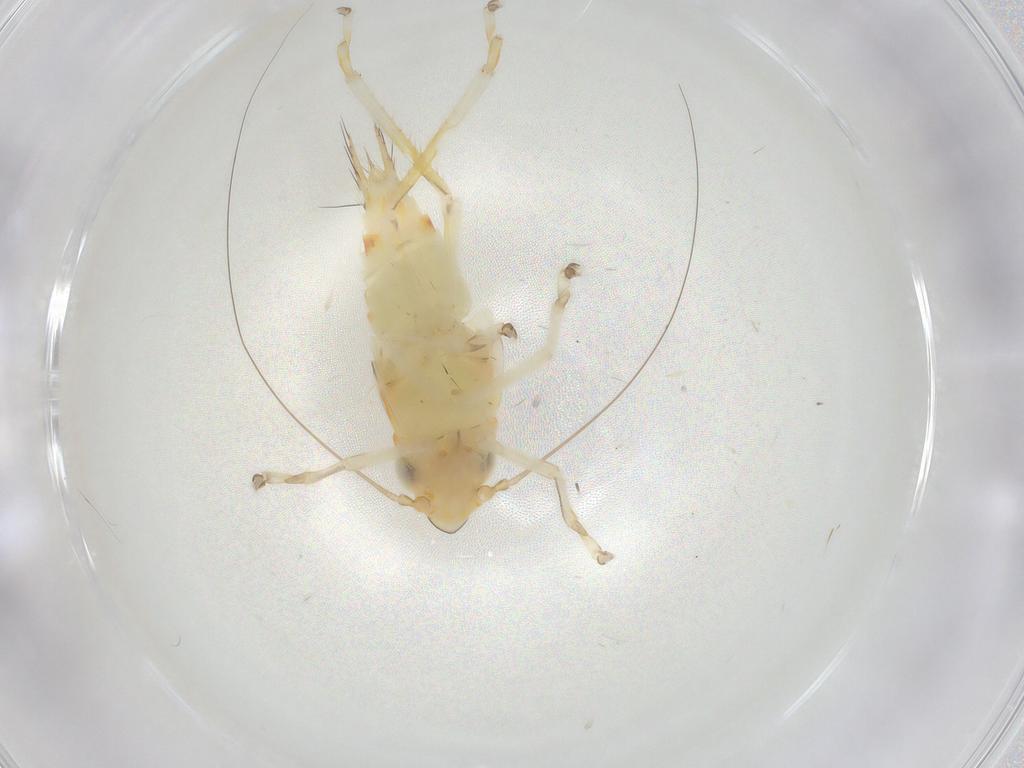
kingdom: Animalia
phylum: Arthropoda
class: Insecta
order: Hemiptera
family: Cicadellidae
